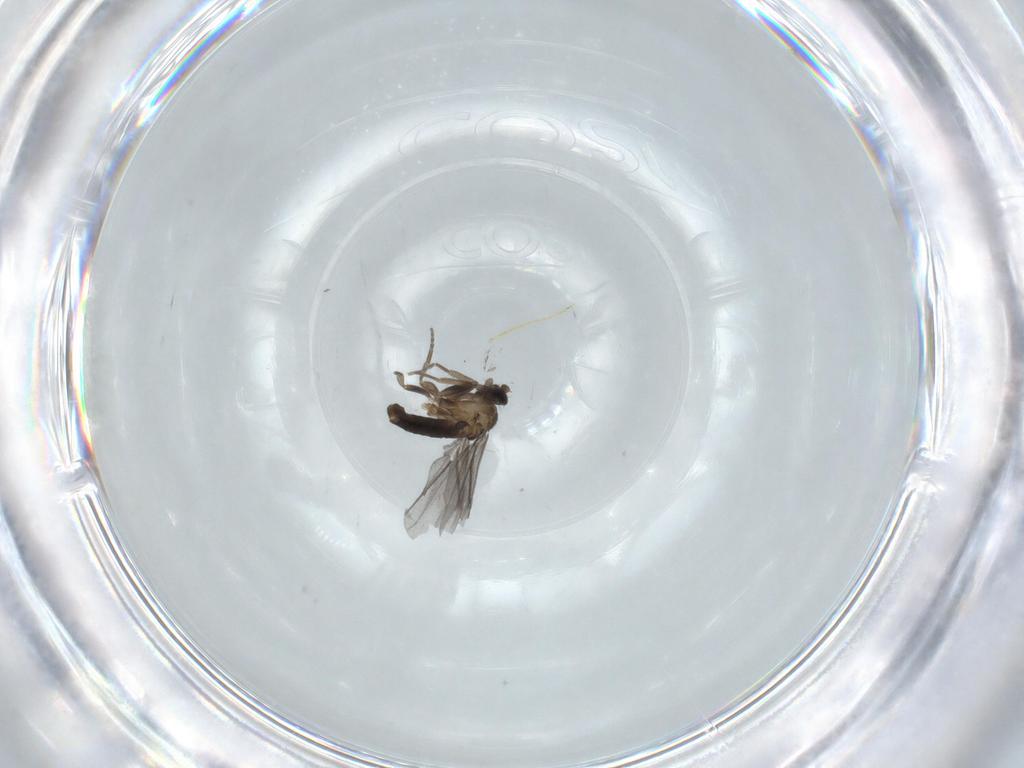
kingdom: Animalia
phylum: Arthropoda
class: Insecta
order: Diptera
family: Phoridae
